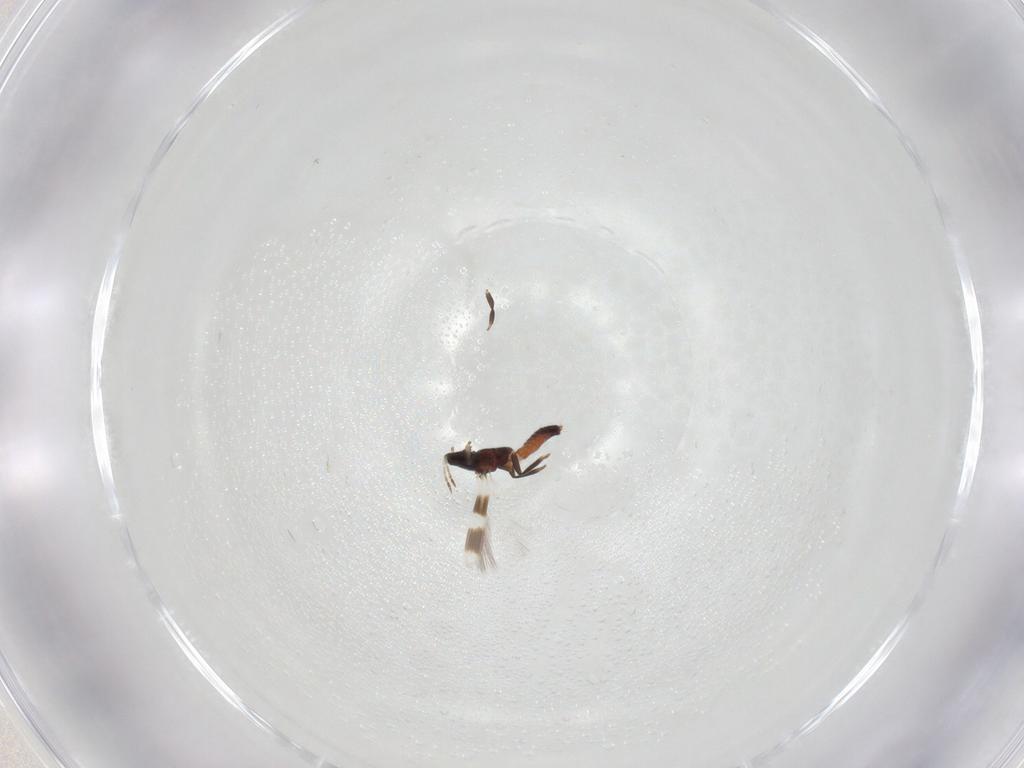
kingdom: Animalia
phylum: Arthropoda
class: Insecta
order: Thysanoptera
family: Aeolothripidae
